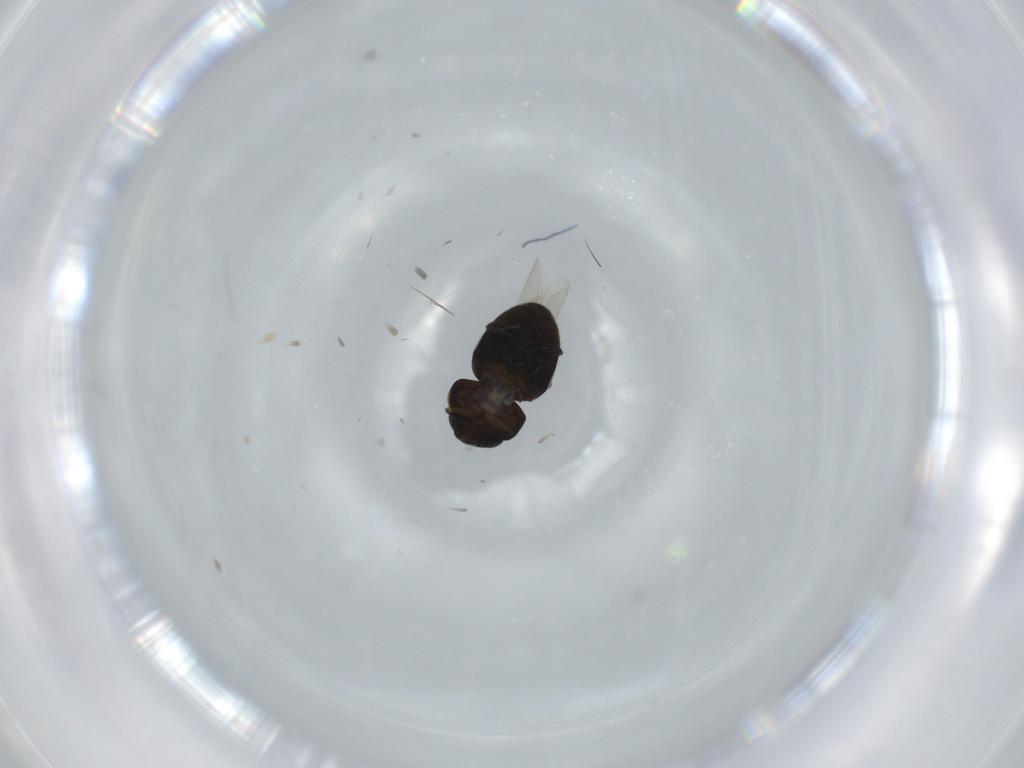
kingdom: Animalia
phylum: Arthropoda
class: Insecta
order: Coleoptera
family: Cybocephalidae
